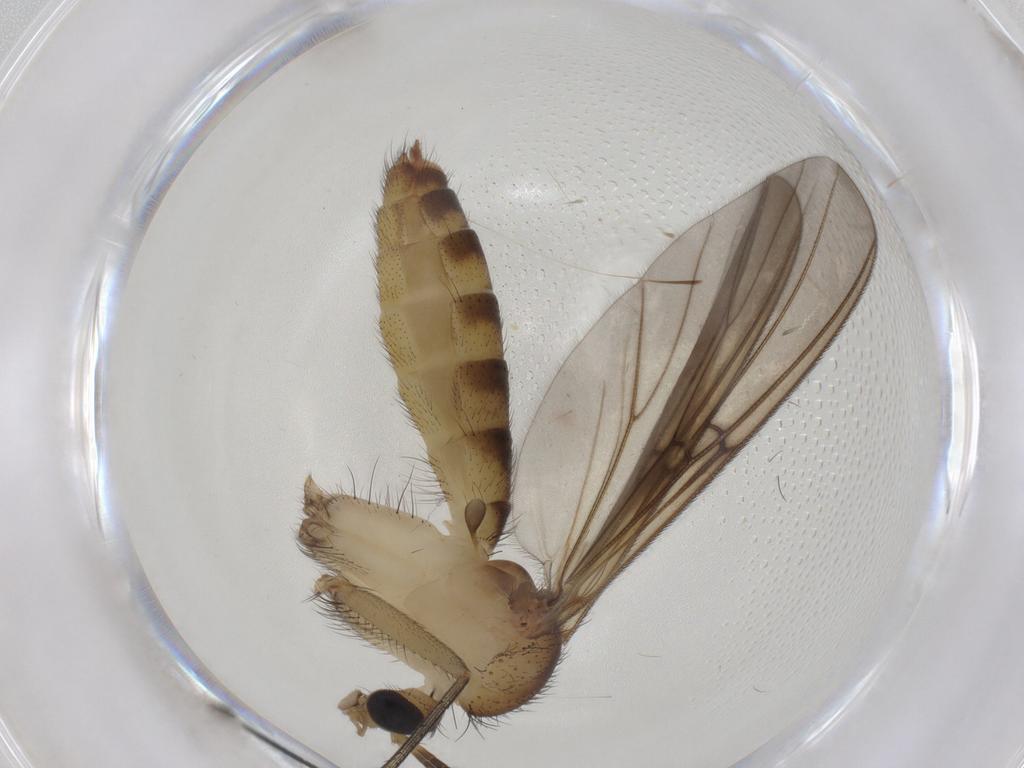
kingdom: Animalia
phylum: Arthropoda
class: Insecta
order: Diptera
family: Mycetophilidae
